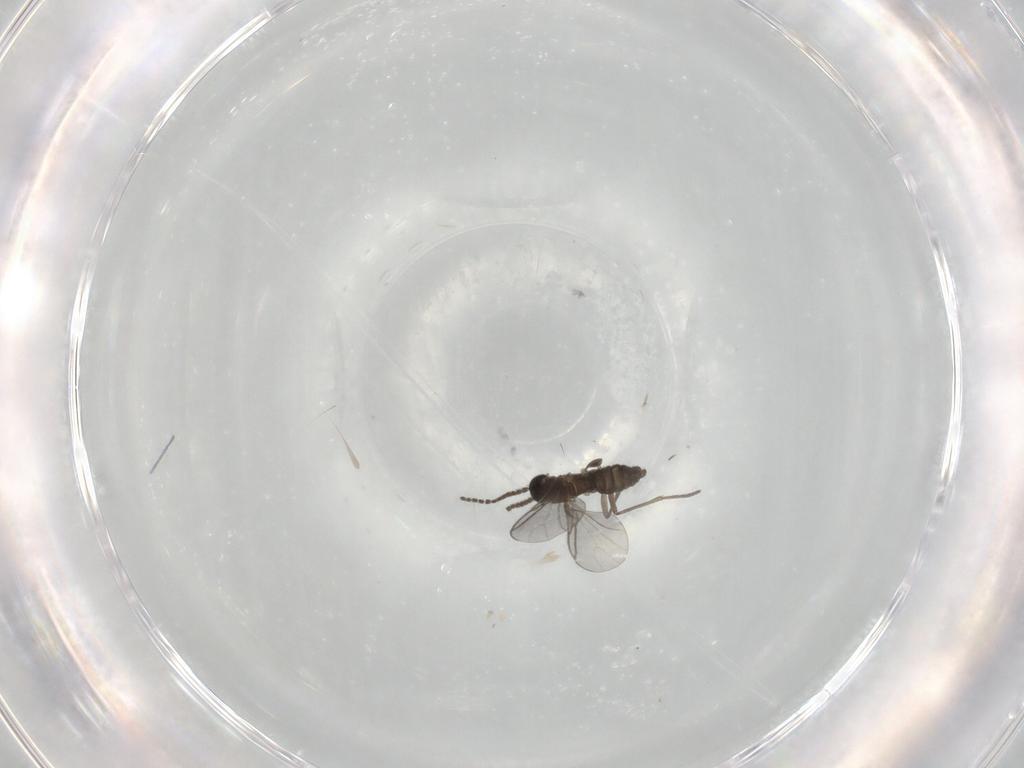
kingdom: Animalia
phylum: Arthropoda
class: Insecta
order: Diptera
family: Sciaridae
